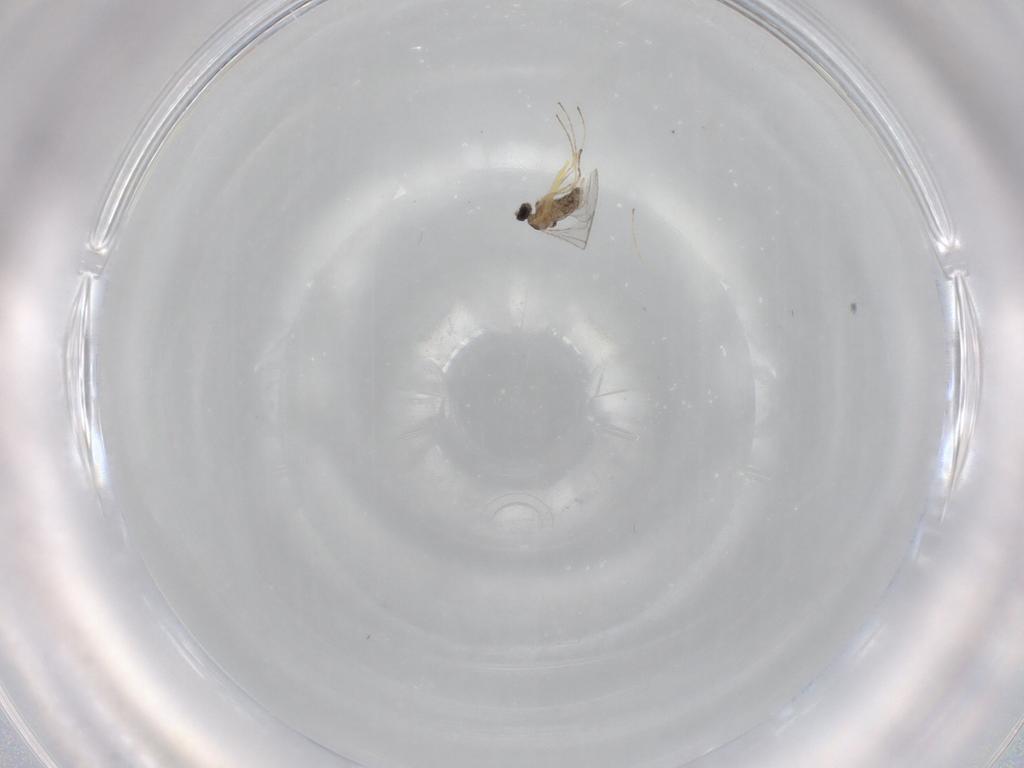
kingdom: Animalia
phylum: Arthropoda
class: Insecta
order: Diptera
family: Cecidomyiidae
